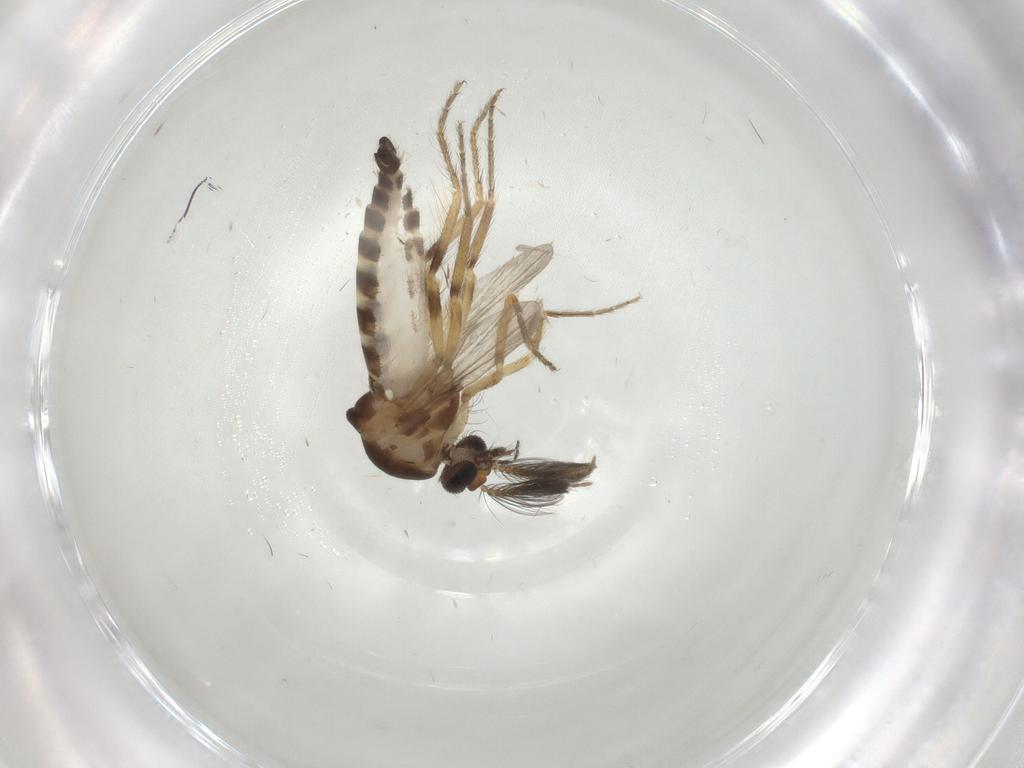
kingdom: Animalia
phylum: Arthropoda
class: Insecta
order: Diptera
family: Ceratopogonidae
